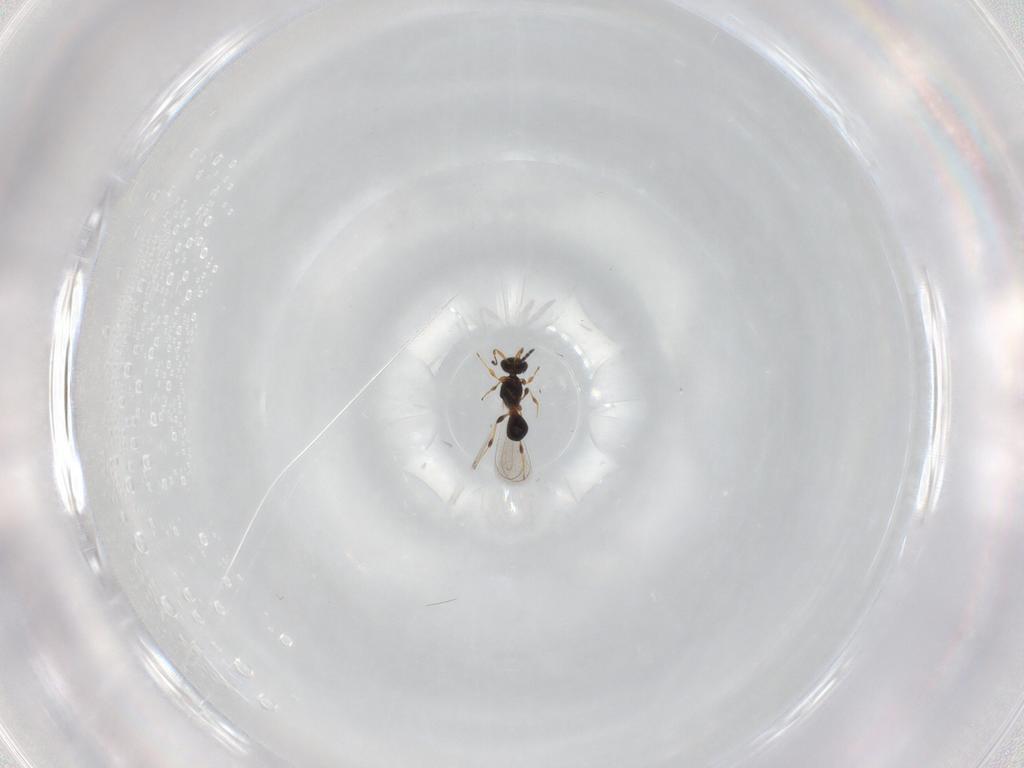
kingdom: Animalia
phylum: Arthropoda
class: Insecta
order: Hymenoptera
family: Platygastridae
